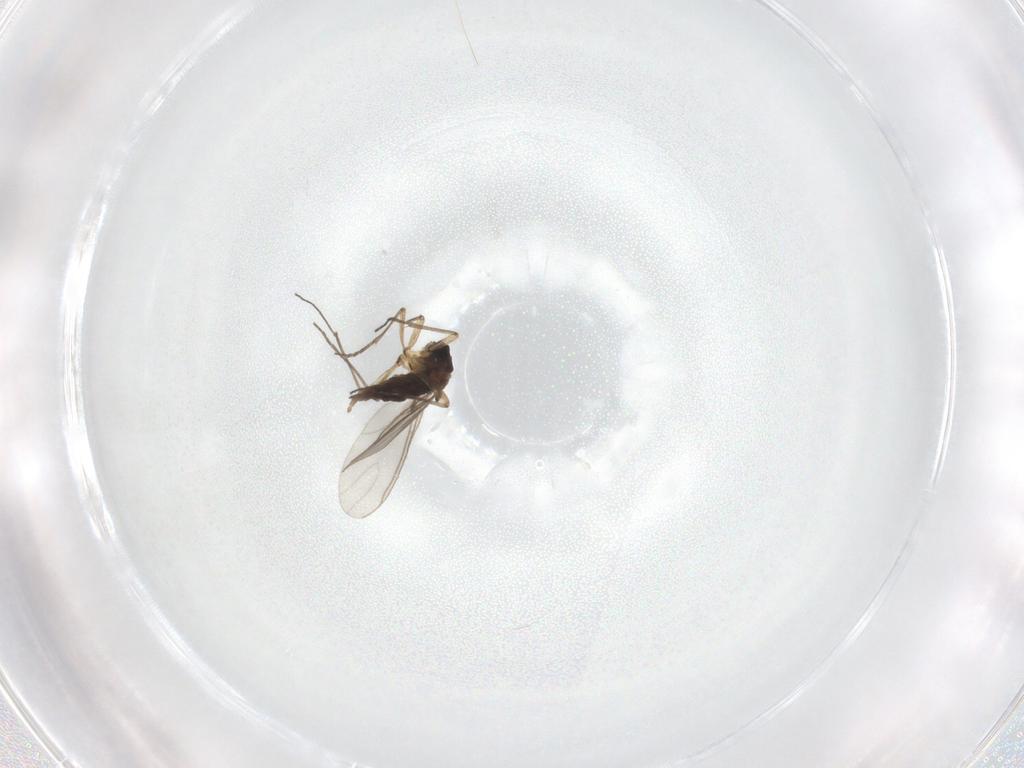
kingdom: Animalia
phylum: Arthropoda
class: Insecta
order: Diptera
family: Sciaridae
